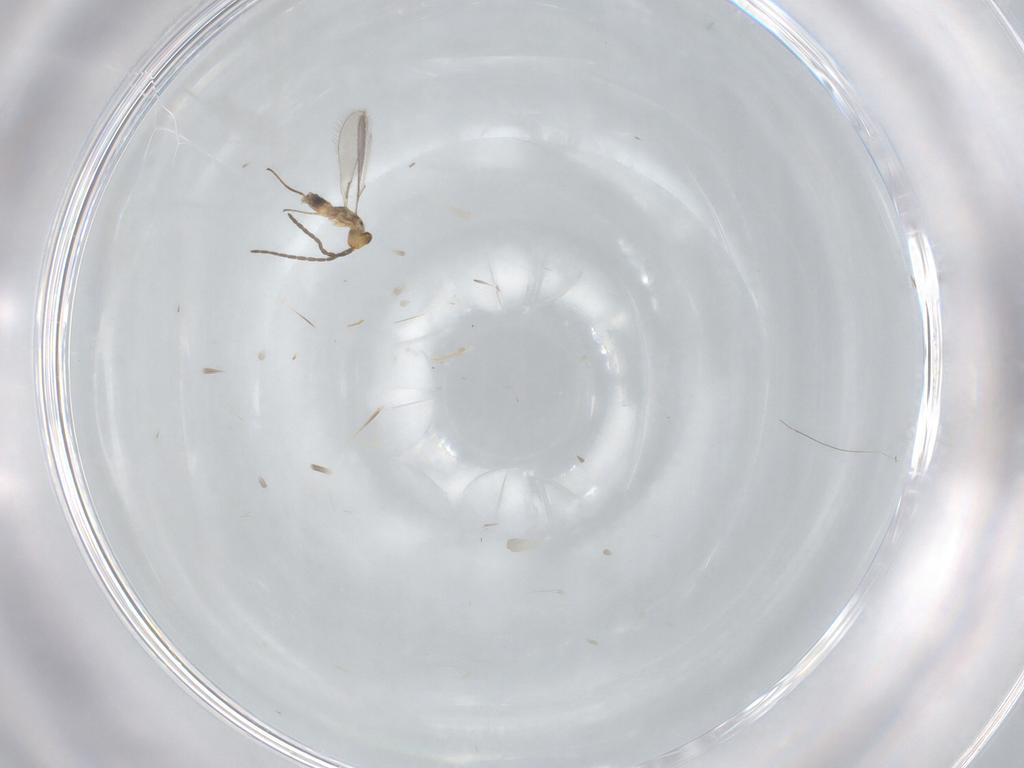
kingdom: Animalia
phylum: Arthropoda
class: Insecta
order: Hymenoptera
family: Mymaridae
